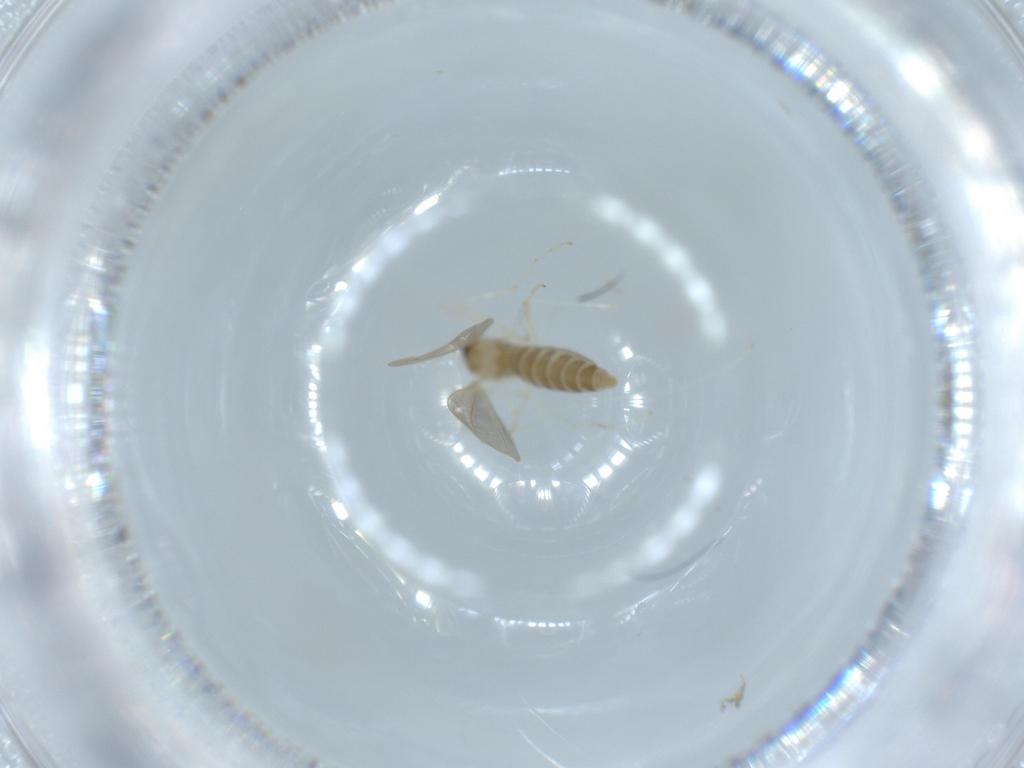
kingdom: Animalia
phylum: Arthropoda
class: Insecta
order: Diptera
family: Cecidomyiidae
